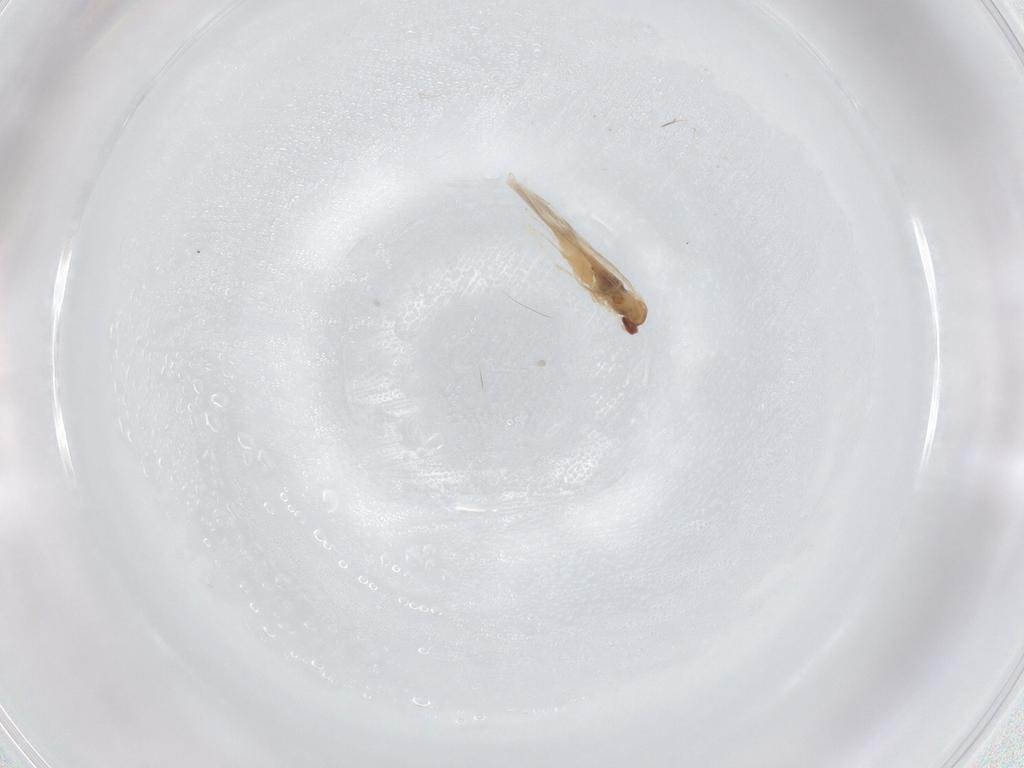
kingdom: Animalia
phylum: Arthropoda
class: Insecta
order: Diptera
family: Cecidomyiidae
